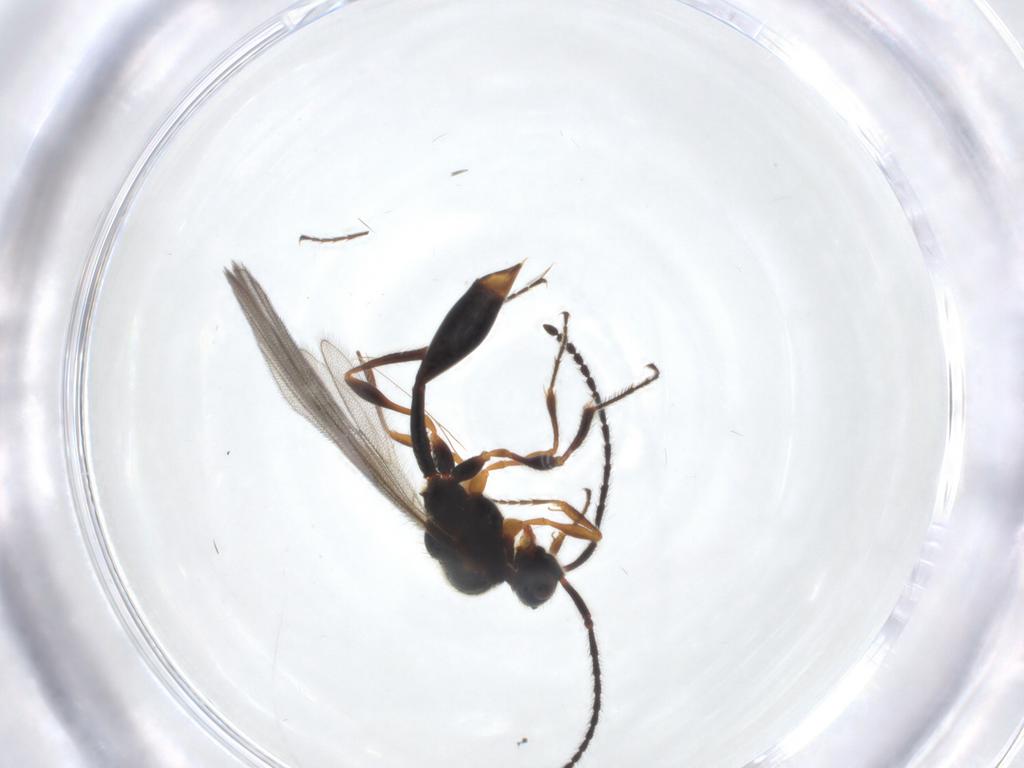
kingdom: Animalia
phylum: Arthropoda
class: Insecta
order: Hymenoptera
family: Diapriidae
